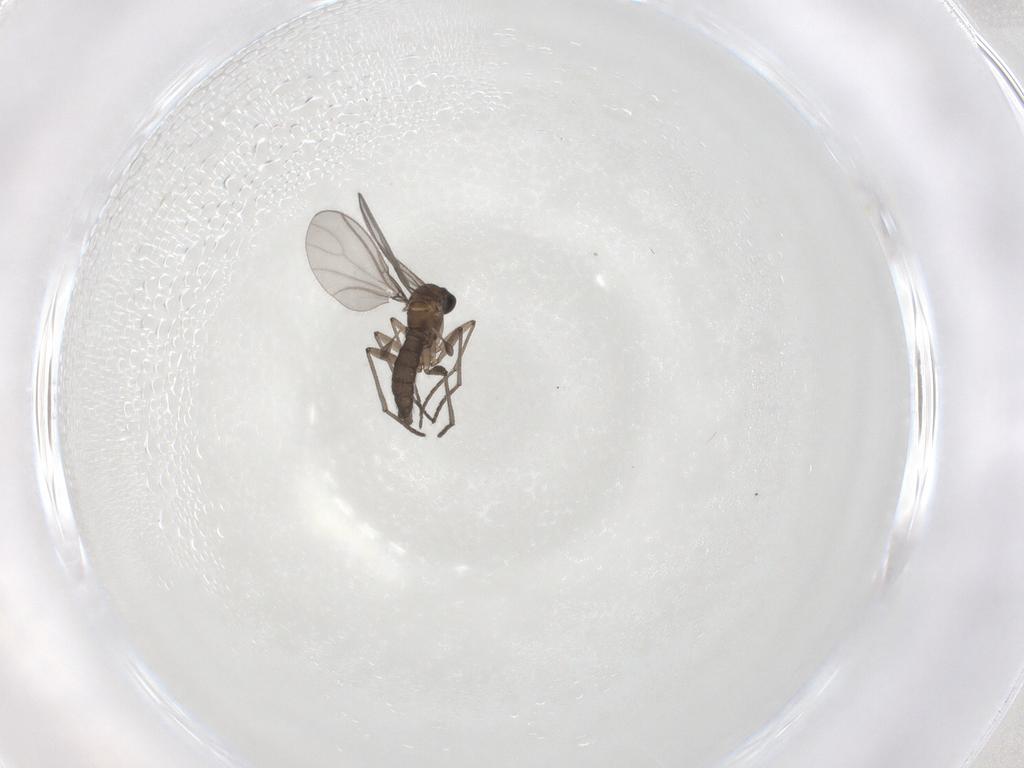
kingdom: Animalia
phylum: Arthropoda
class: Insecta
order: Diptera
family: Sciaridae
